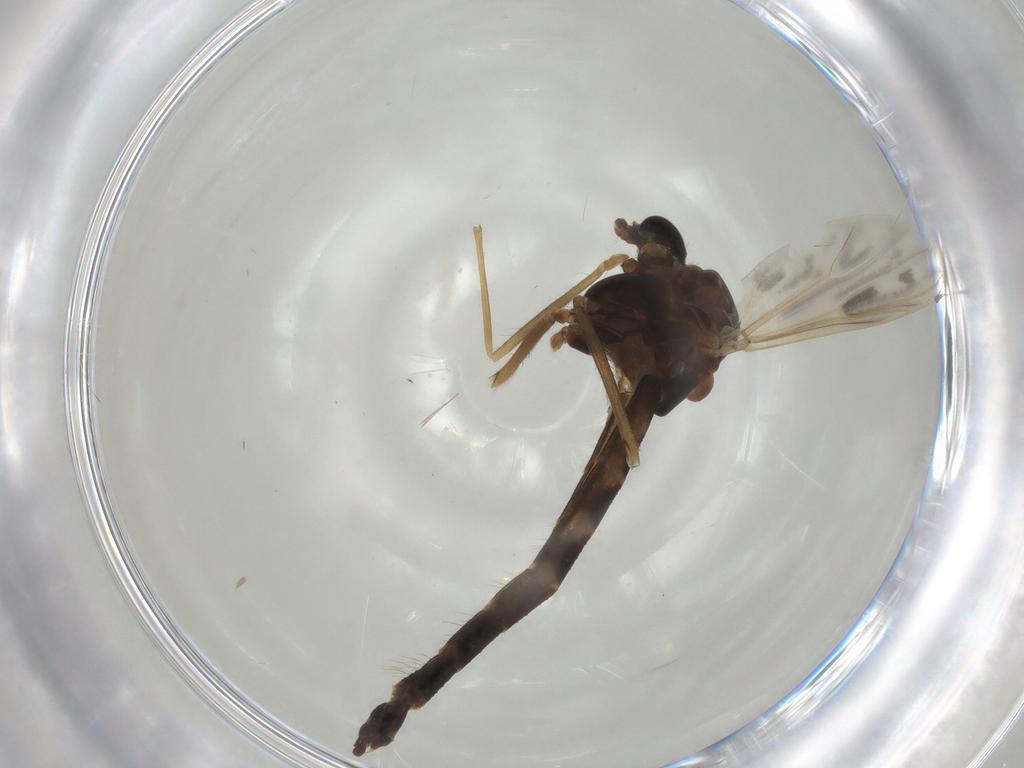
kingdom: Animalia
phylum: Arthropoda
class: Insecta
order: Diptera
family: Chironomidae
